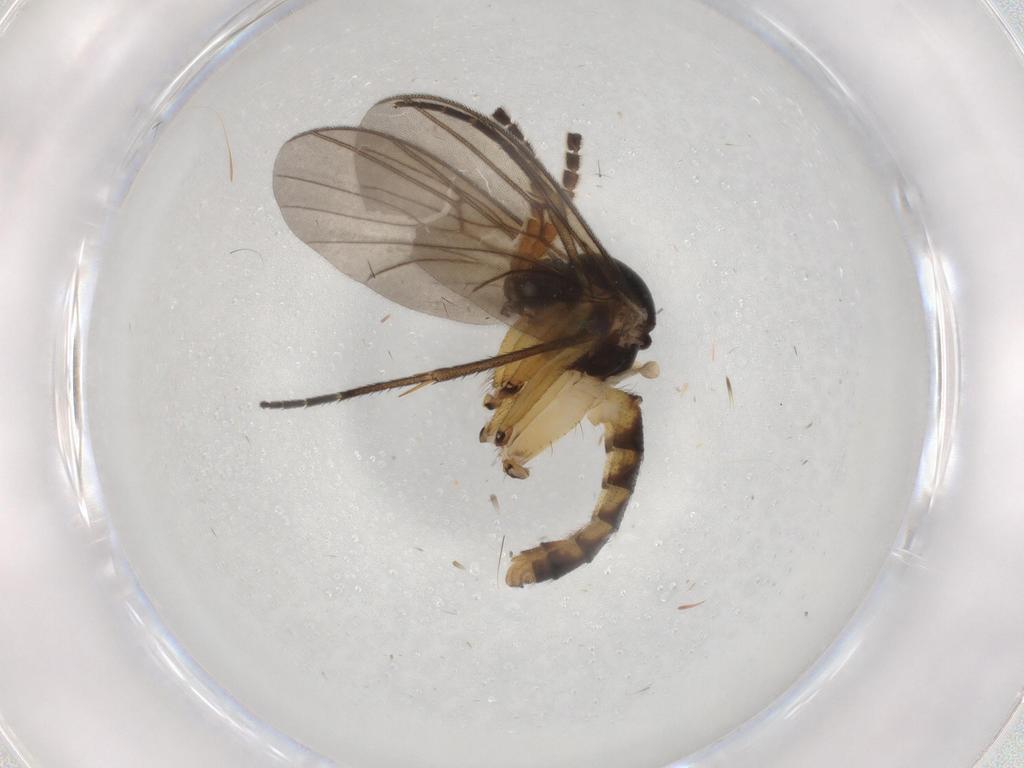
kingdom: Animalia
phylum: Arthropoda
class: Insecta
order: Diptera
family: Mycetophilidae
